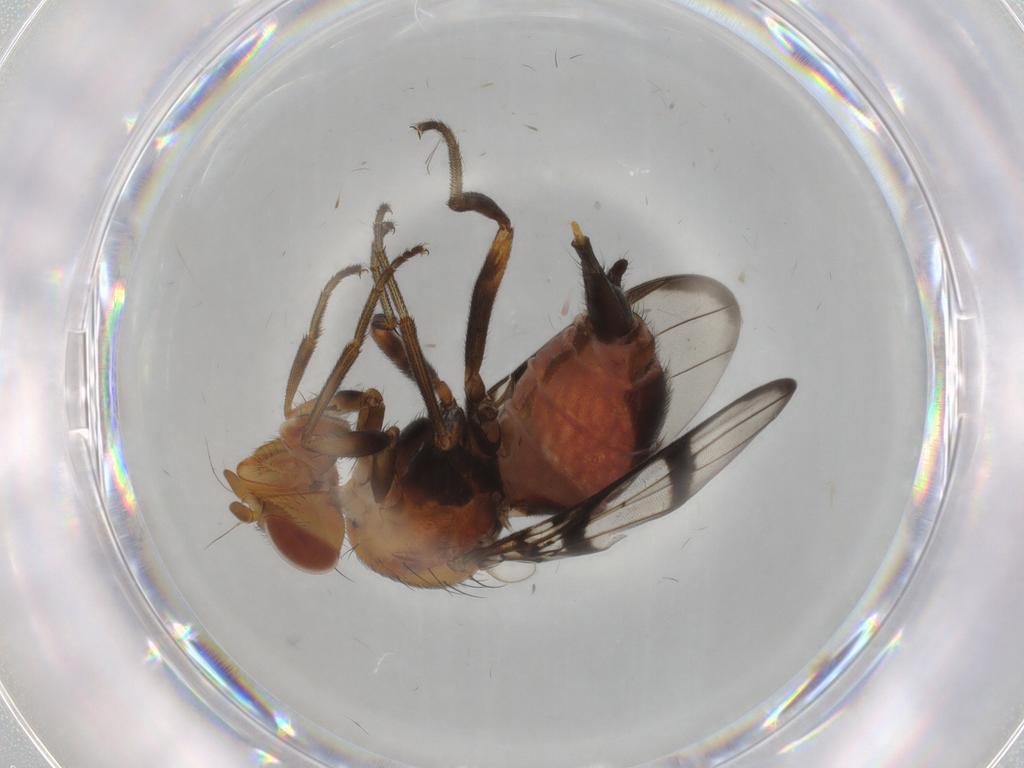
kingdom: Animalia
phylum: Arthropoda
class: Insecta
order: Diptera
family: Richardiidae
